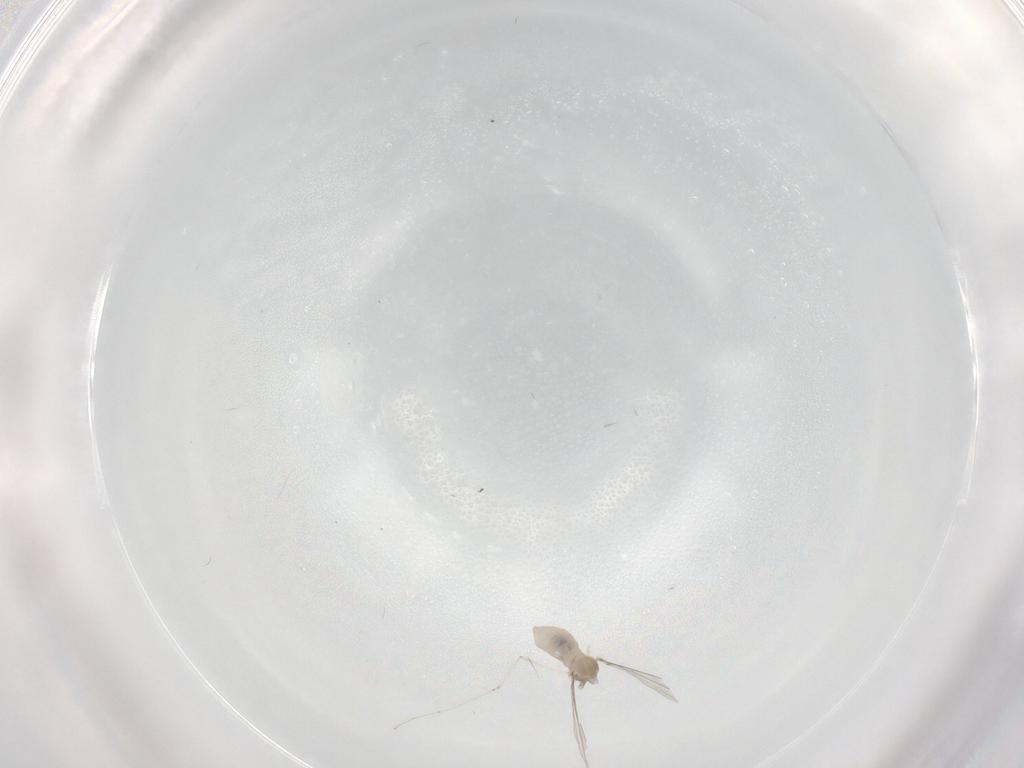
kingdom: Animalia
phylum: Arthropoda
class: Insecta
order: Diptera
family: Cecidomyiidae
